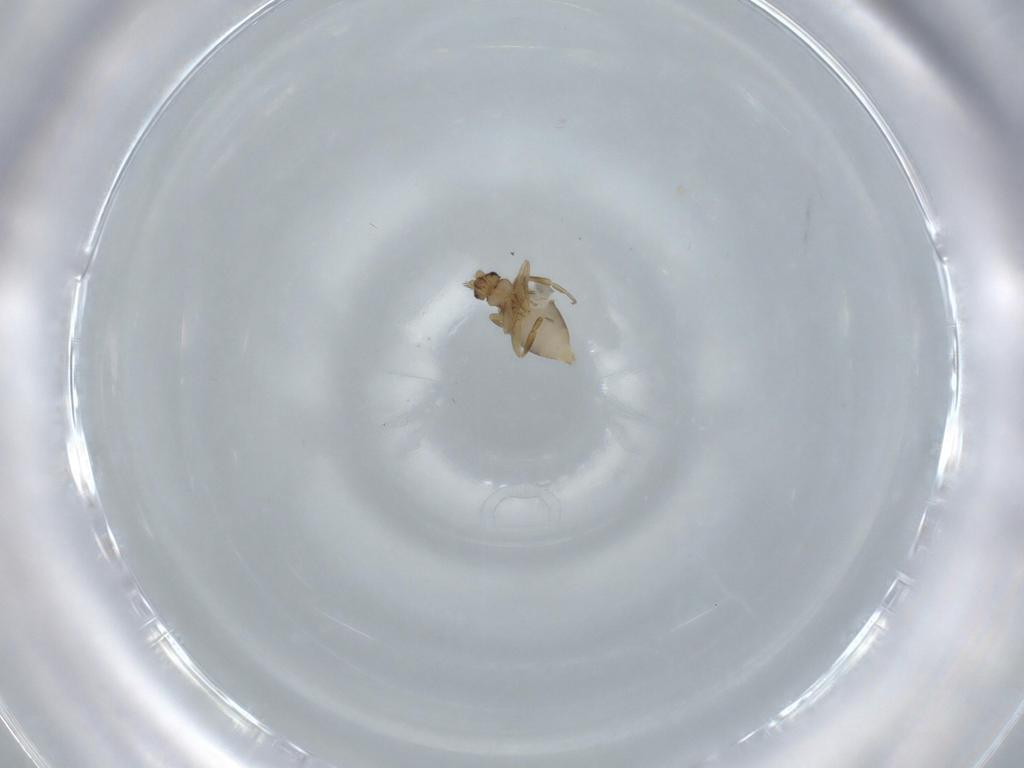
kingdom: Animalia
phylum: Arthropoda
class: Insecta
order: Diptera
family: Phoridae
